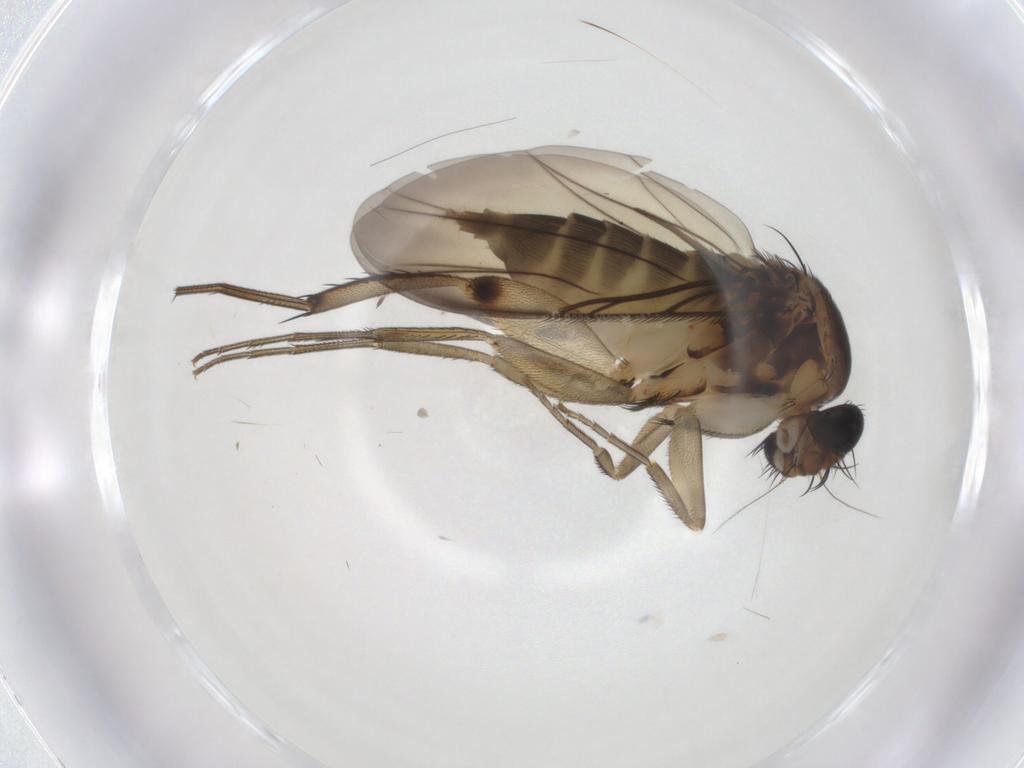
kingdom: Animalia
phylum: Arthropoda
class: Insecta
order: Diptera
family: Phoridae
